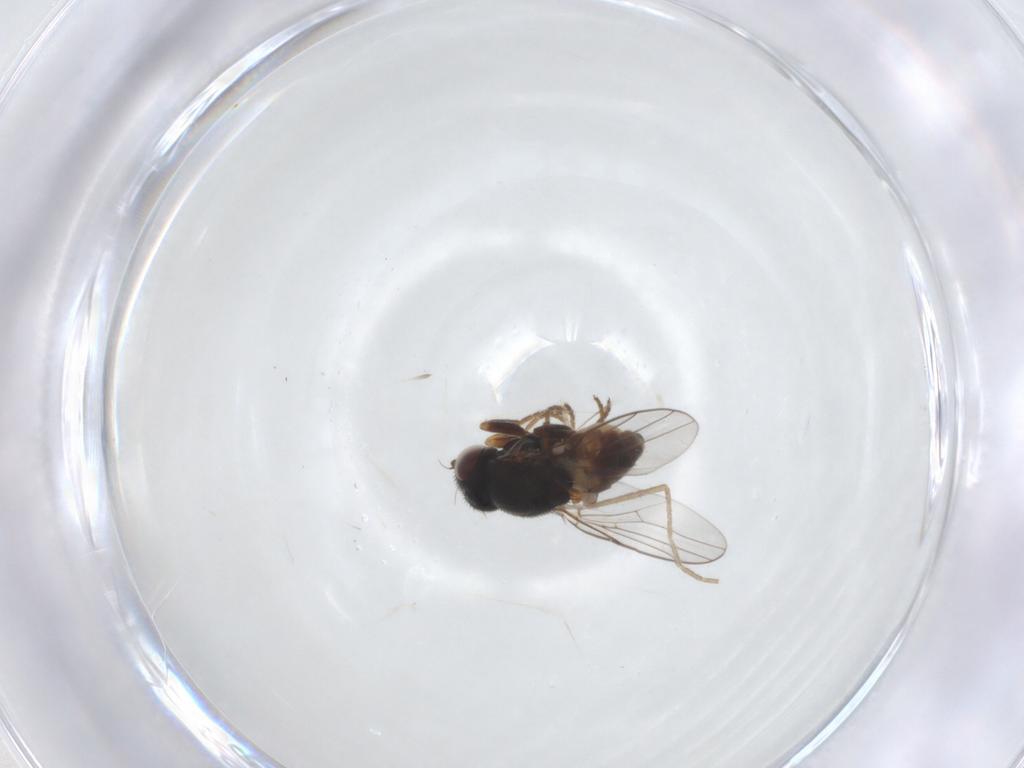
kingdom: Animalia
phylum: Arthropoda
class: Insecta
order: Diptera
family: Chloropidae
